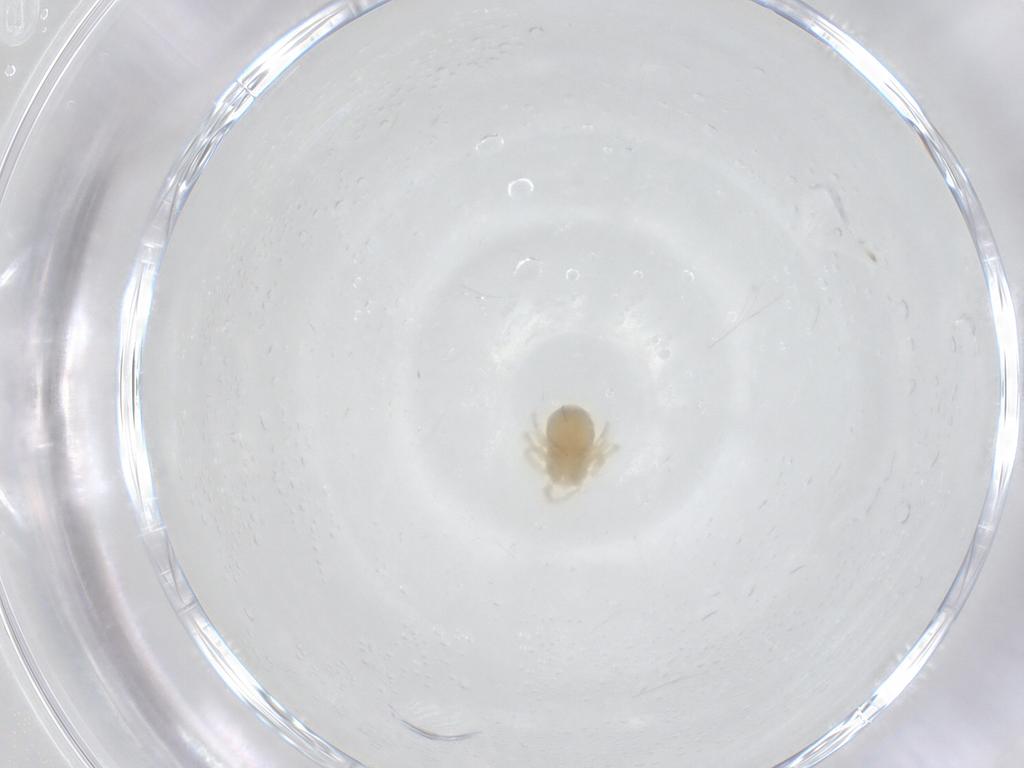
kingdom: Animalia
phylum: Arthropoda
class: Arachnida
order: Trombidiformes
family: Anystidae
